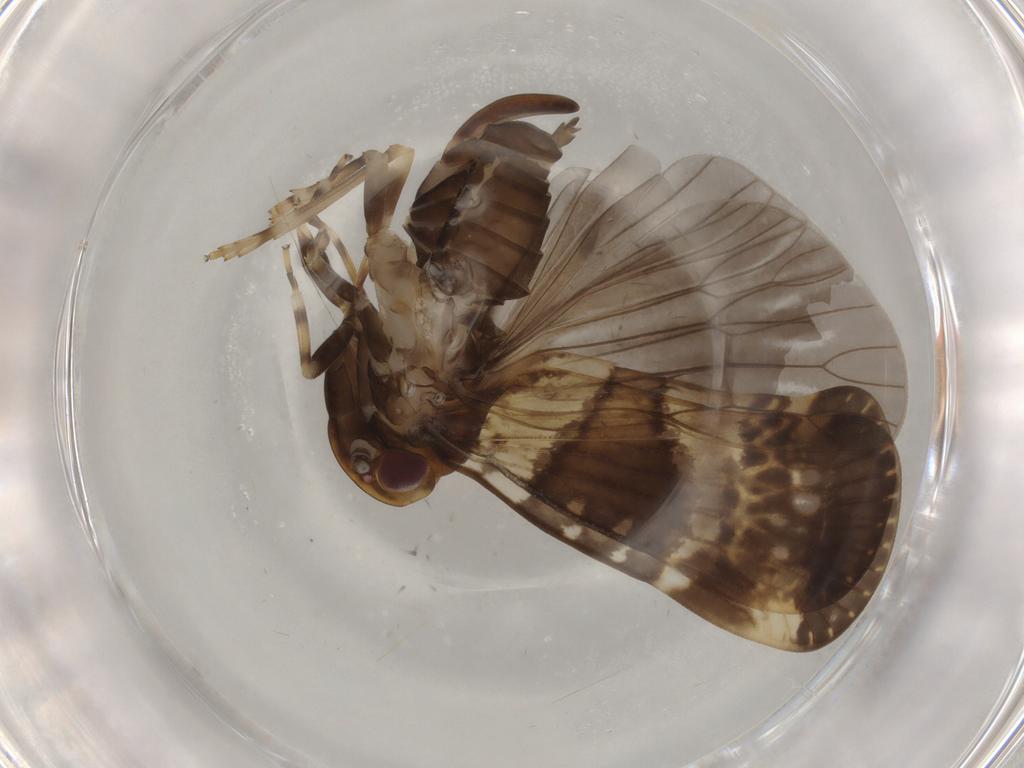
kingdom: Animalia
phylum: Arthropoda
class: Insecta
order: Hemiptera
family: Cixiidae
